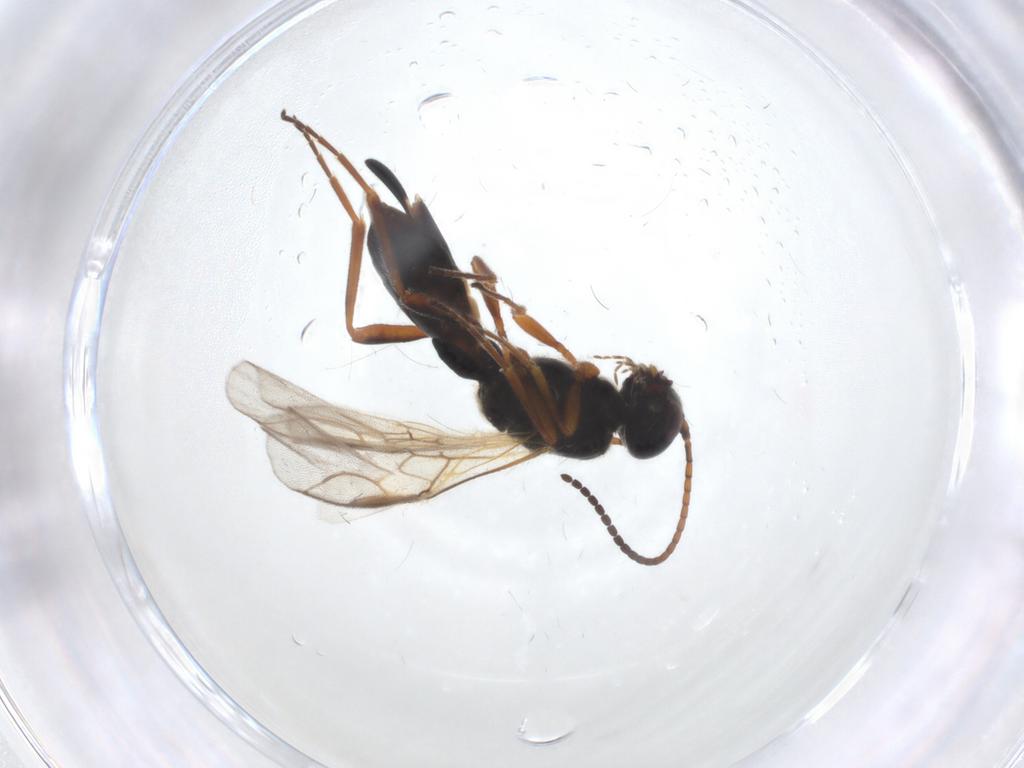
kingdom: Animalia
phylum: Arthropoda
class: Insecta
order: Hymenoptera
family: Braconidae
